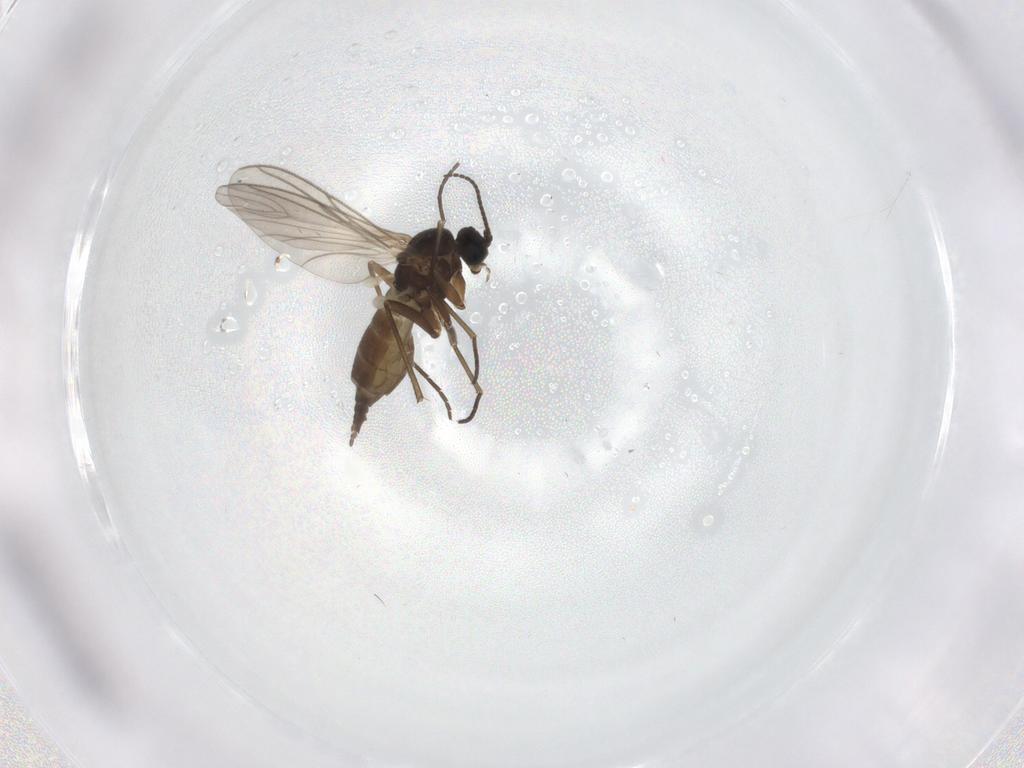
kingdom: Animalia
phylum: Arthropoda
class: Insecta
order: Diptera
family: Sciaridae
